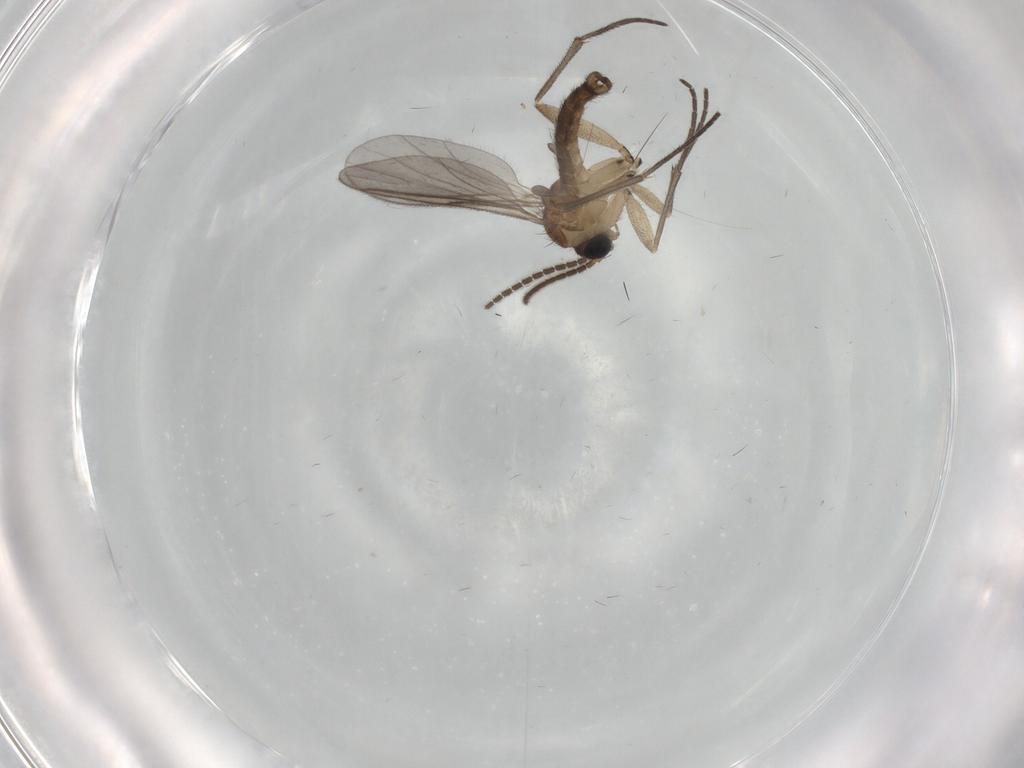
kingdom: Animalia
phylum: Arthropoda
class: Insecta
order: Diptera
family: Sciaridae
